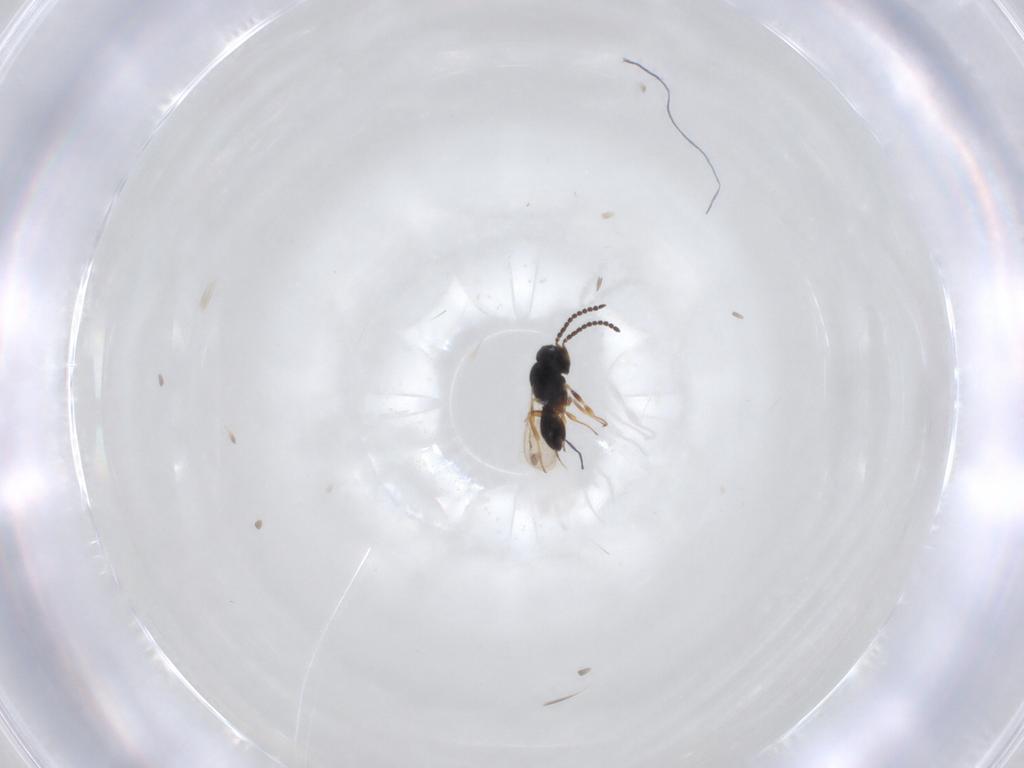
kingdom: Animalia
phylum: Arthropoda
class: Insecta
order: Hymenoptera
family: Scelionidae
